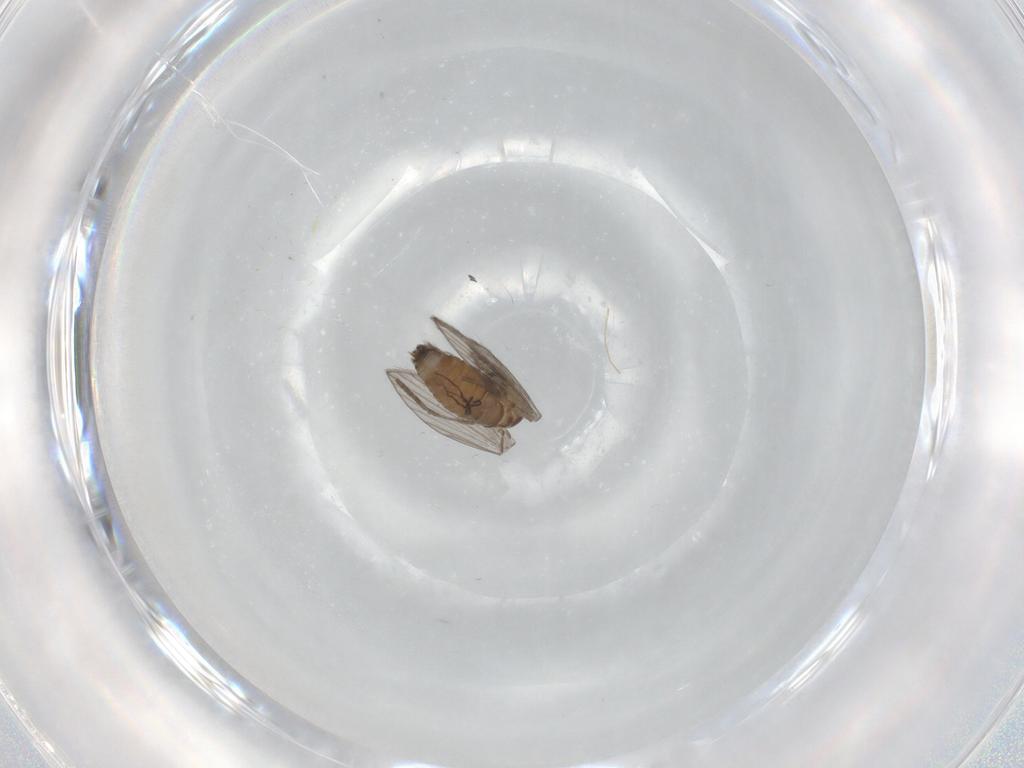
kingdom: Animalia
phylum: Arthropoda
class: Insecta
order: Diptera
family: Psychodidae
